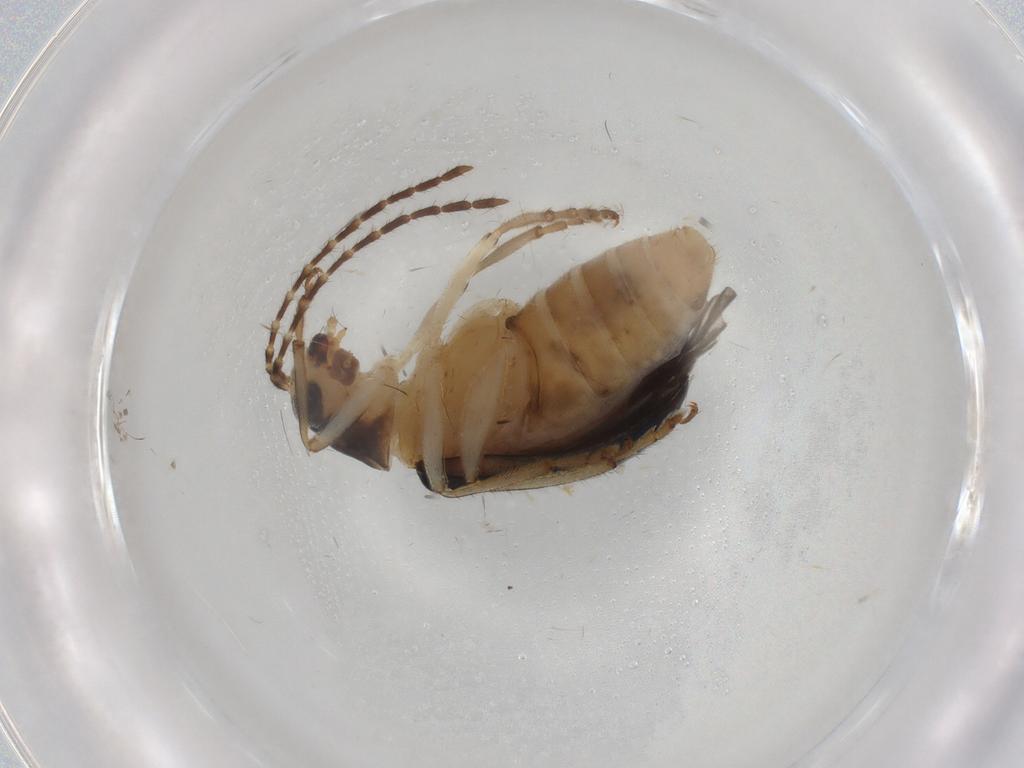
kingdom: Animalia
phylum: Arthropoda
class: Insecta
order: Coleoptera
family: Chrysomelidae
